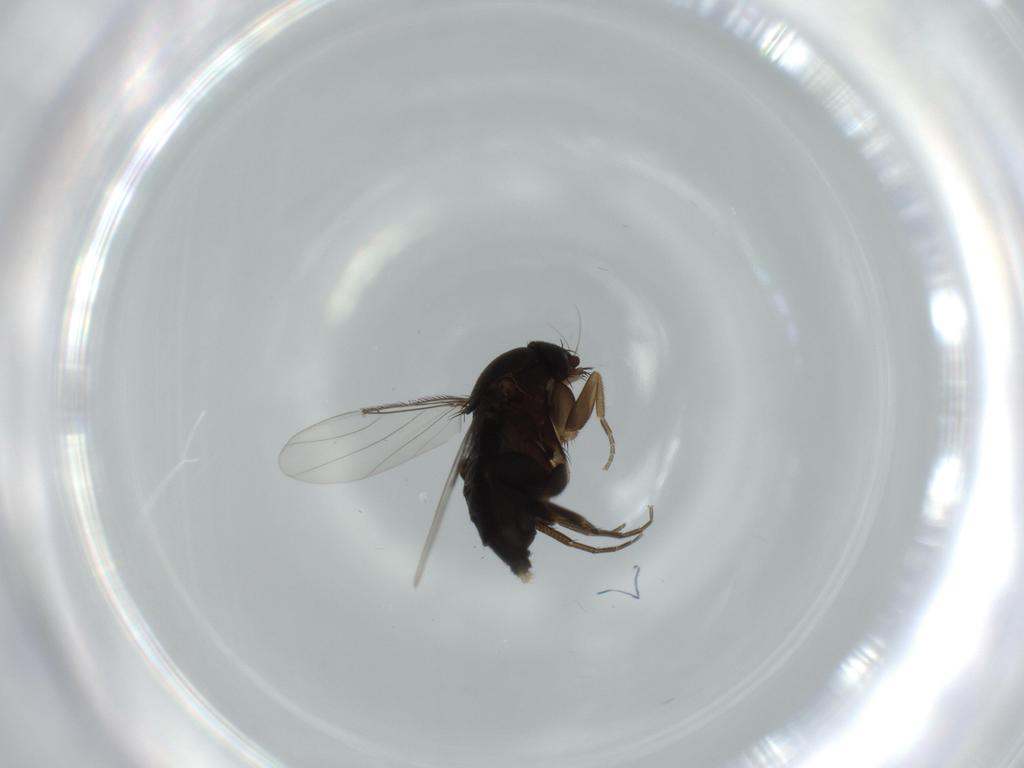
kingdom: Animalia
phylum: Arthropoda
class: Insecta
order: Diptera
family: Phoridae
